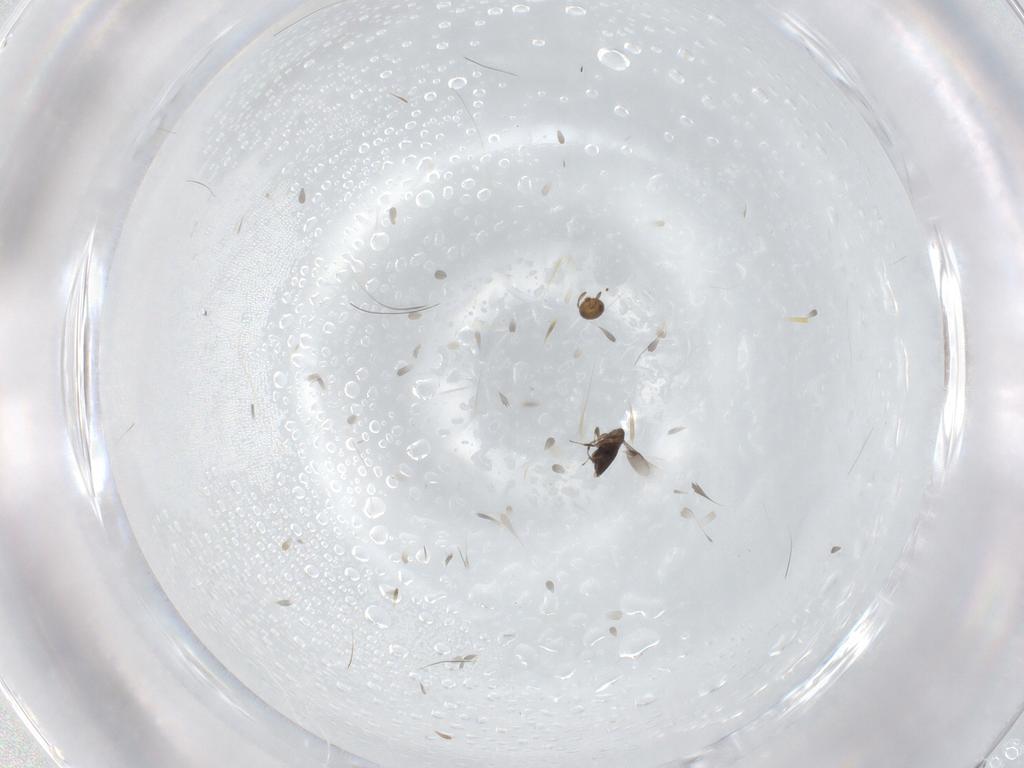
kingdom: Animalia
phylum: Arthropoda
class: Insecta
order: Hymenoptera
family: Signiphoridae
